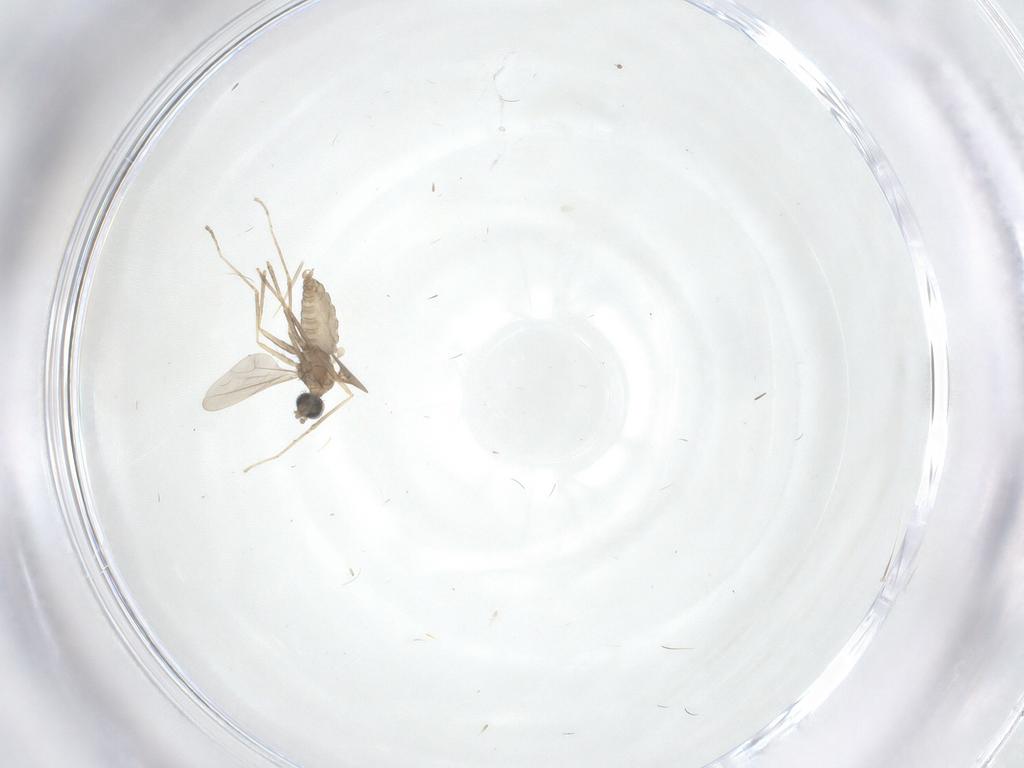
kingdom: Animalia
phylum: Arthropoda
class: Insecta
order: Diptera
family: Cecidomyiidae
